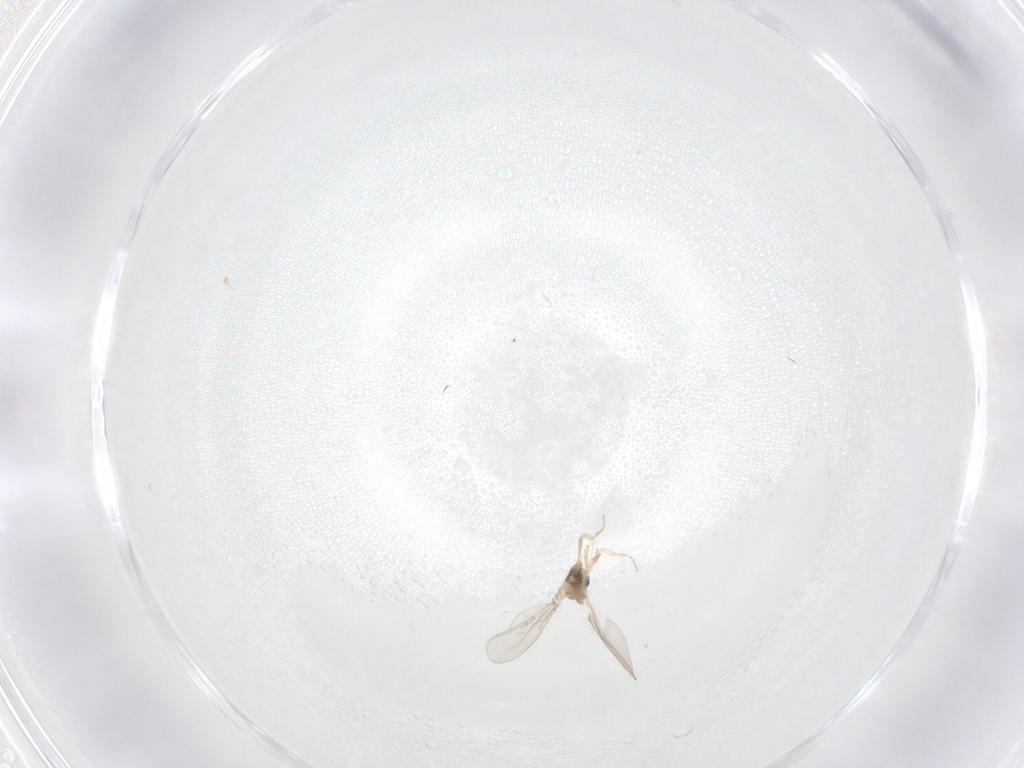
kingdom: Animalia
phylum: Arthropoda
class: Insecta
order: Diptera
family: Cecidomyiidae
